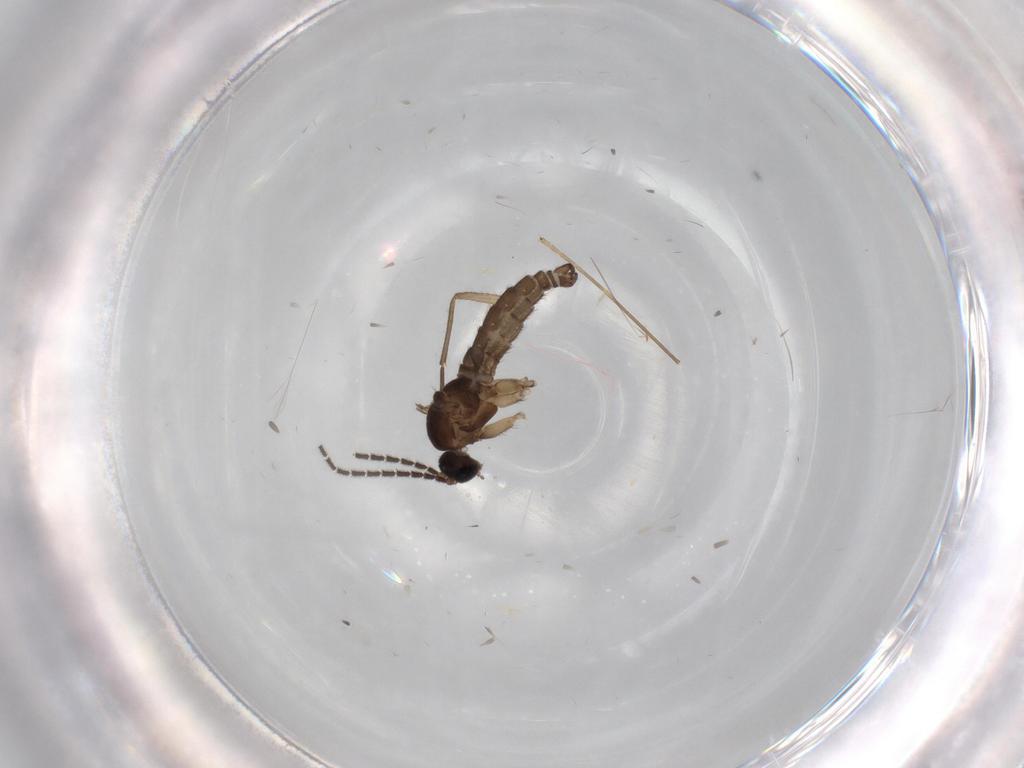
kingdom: Animalia
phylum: Arthropoda
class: Insecta
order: Diptera
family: Limoniidae
